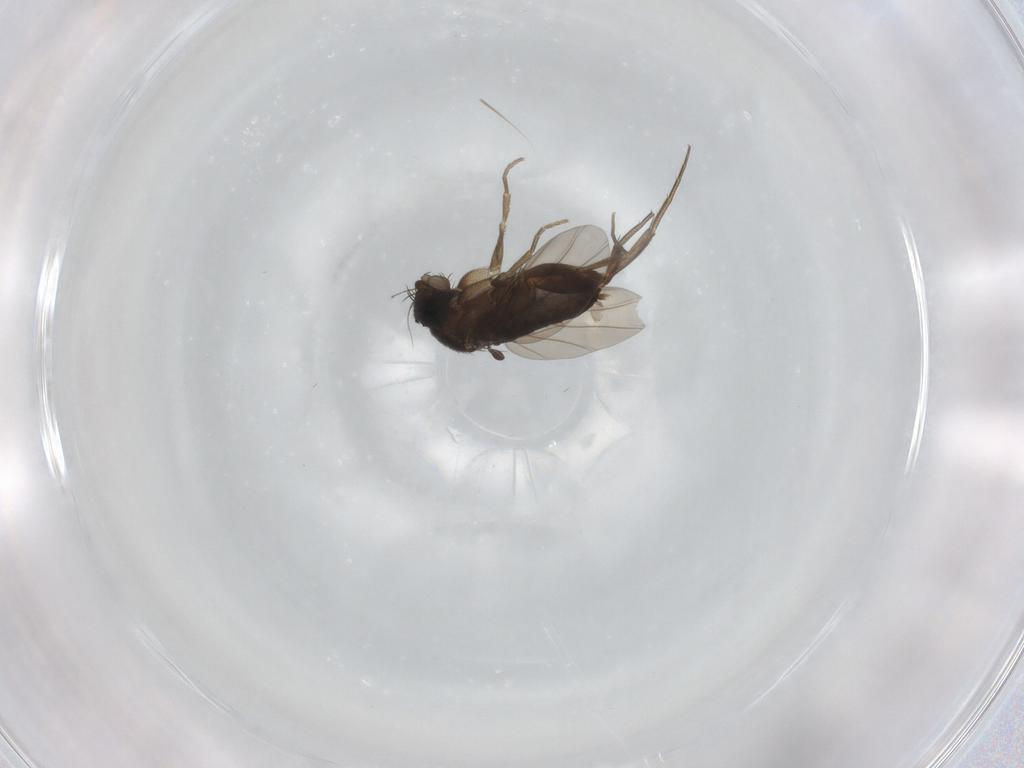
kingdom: Animalia
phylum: Arthropoda
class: Insecta
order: Diptera
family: Phoridae
